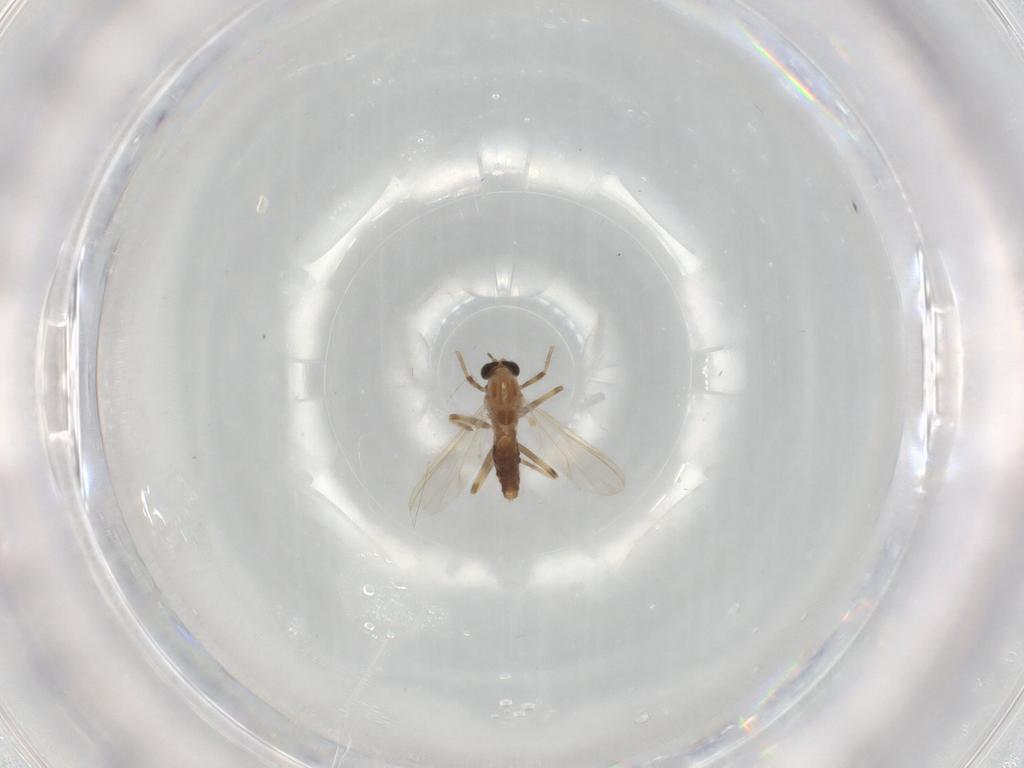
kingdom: Animalia
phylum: Arthropoda
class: Insecta
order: Diptera
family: Chironomidae
